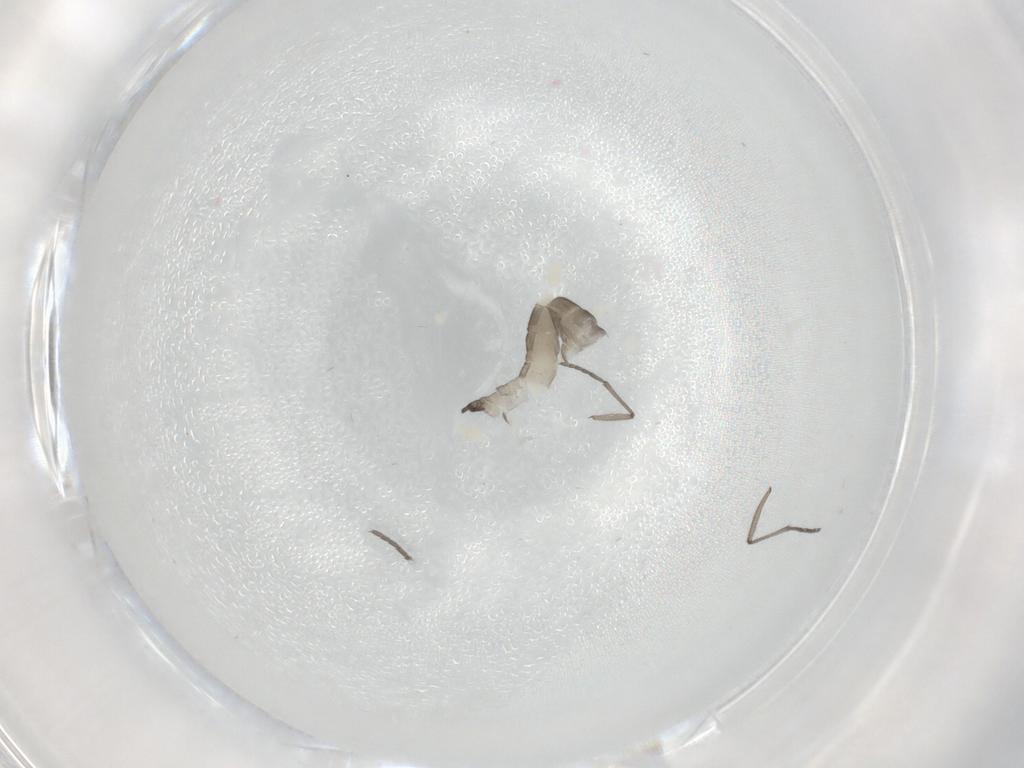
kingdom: Animalia
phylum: Arthropoda
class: Insecta
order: Diptera
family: Sciaridae
